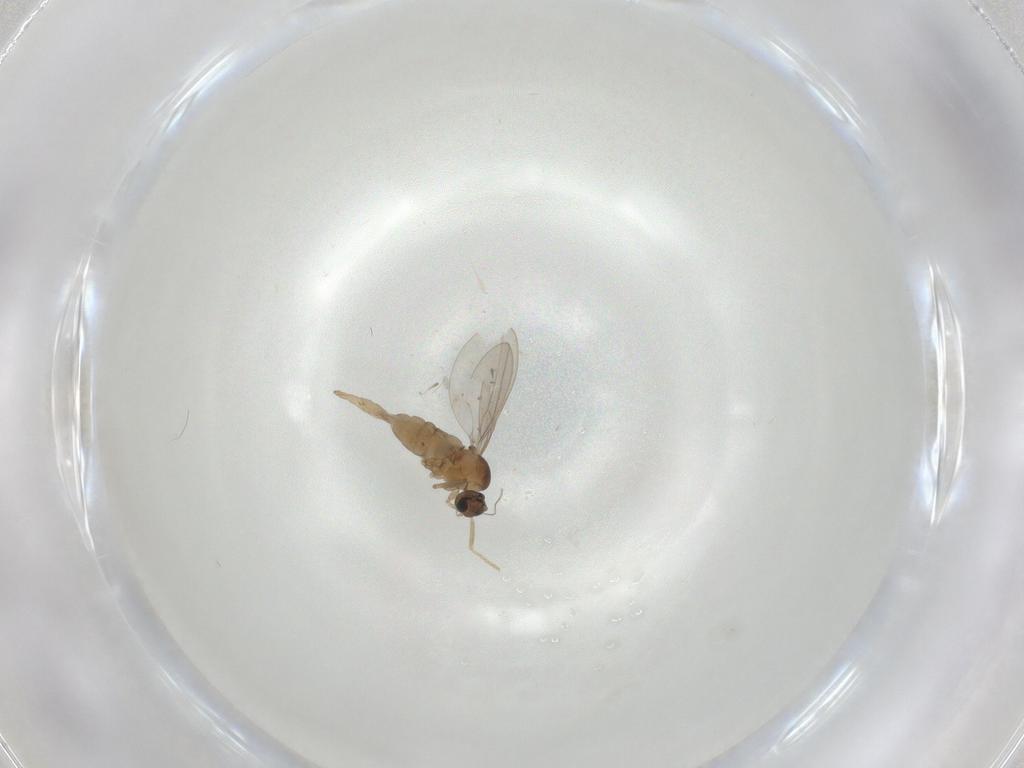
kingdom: Animalia
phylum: Arthropoda
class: Insecta
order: Diptera
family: Cecidomyiidae
